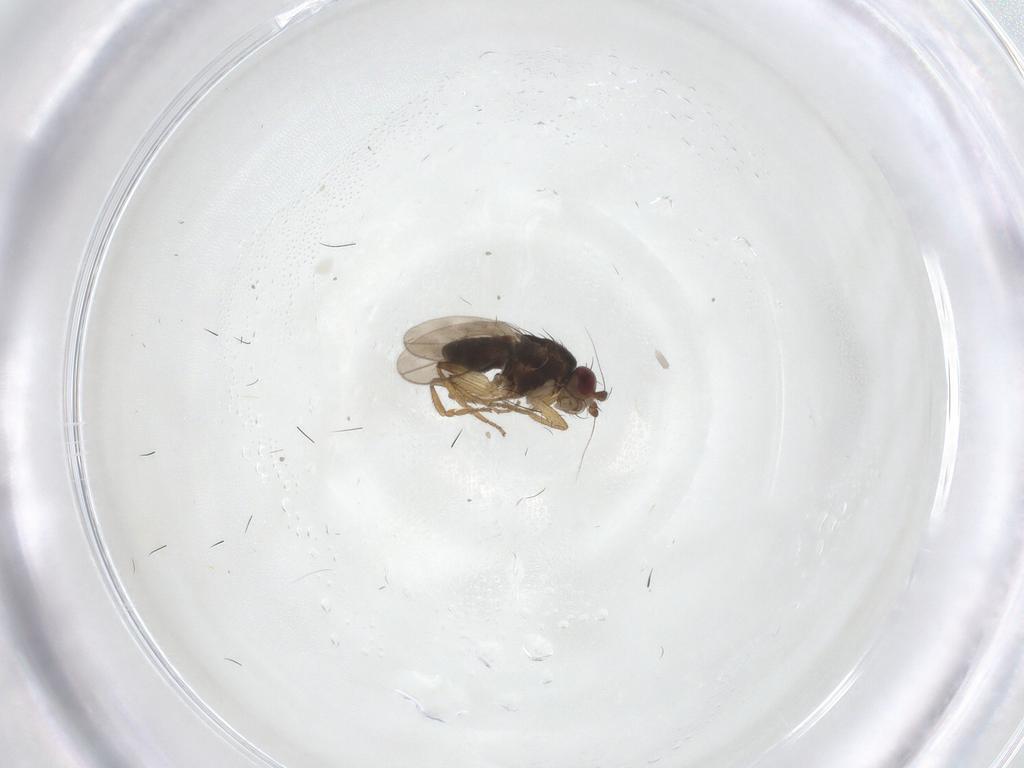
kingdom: Animalia
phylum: Arthropoda
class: Insecta
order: Diptera
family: Sphaeroceridae
